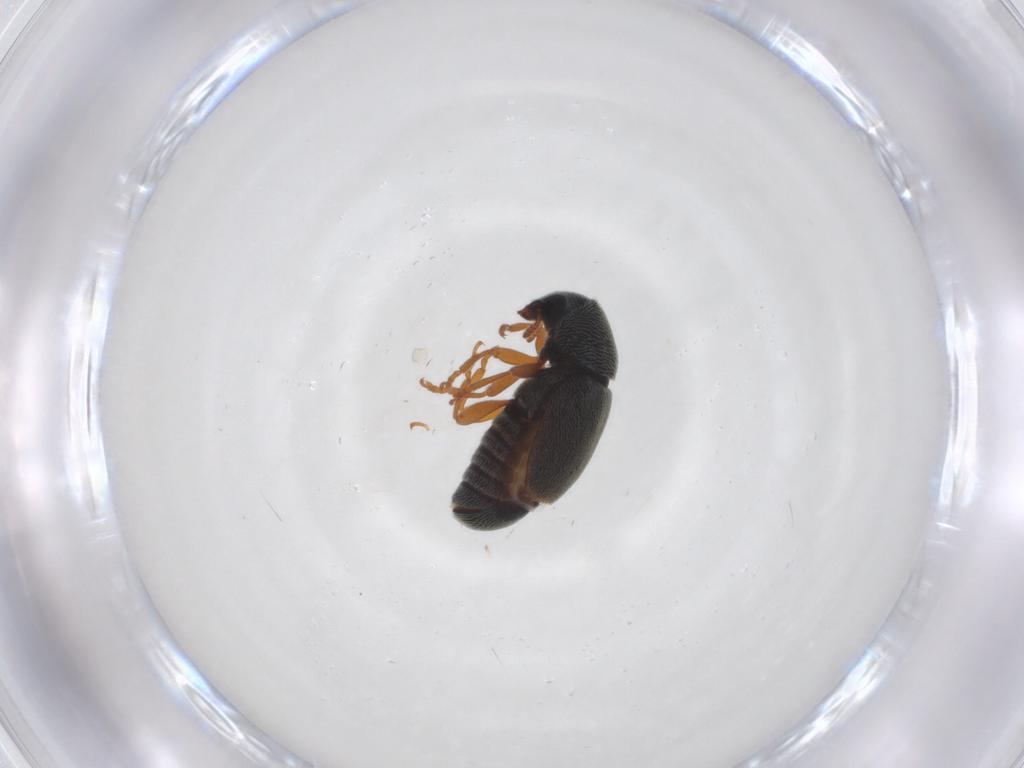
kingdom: Animalia
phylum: Arthropoda
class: Insecta
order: Coleoptera
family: Anthribidae
